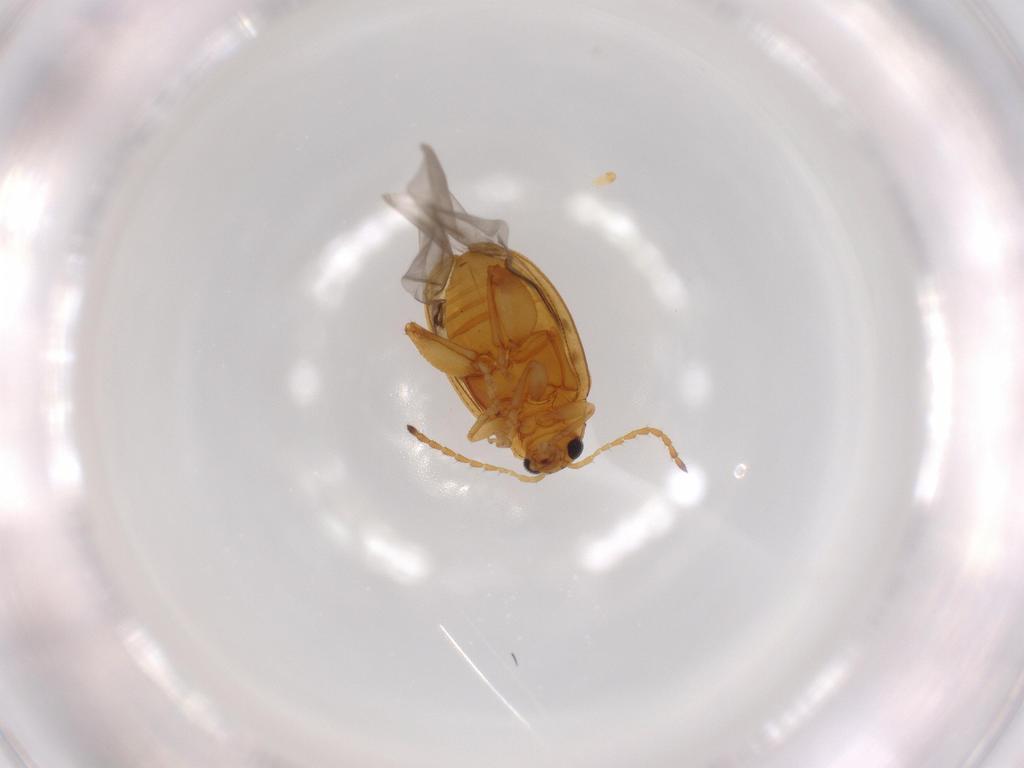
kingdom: Animalia
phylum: Arthropoda
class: Insecta
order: Coleoptera
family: Chrysomelidae
